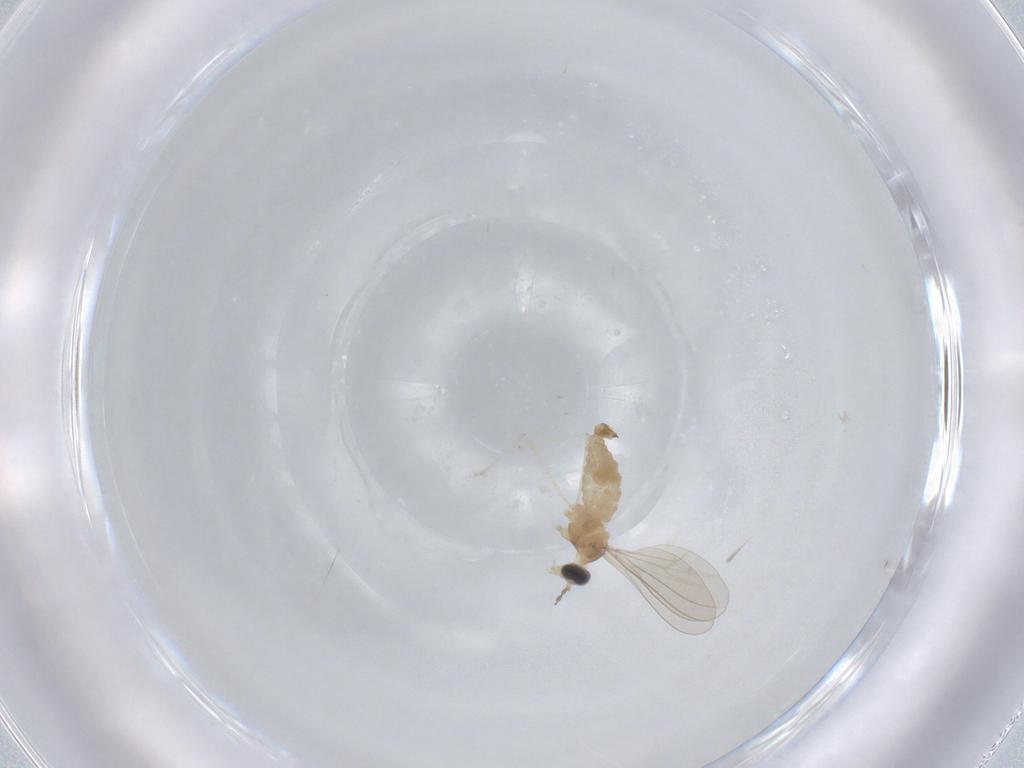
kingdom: Animalia
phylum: Arthropoda
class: Insecta
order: Diptera
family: Cecidomyiidae
